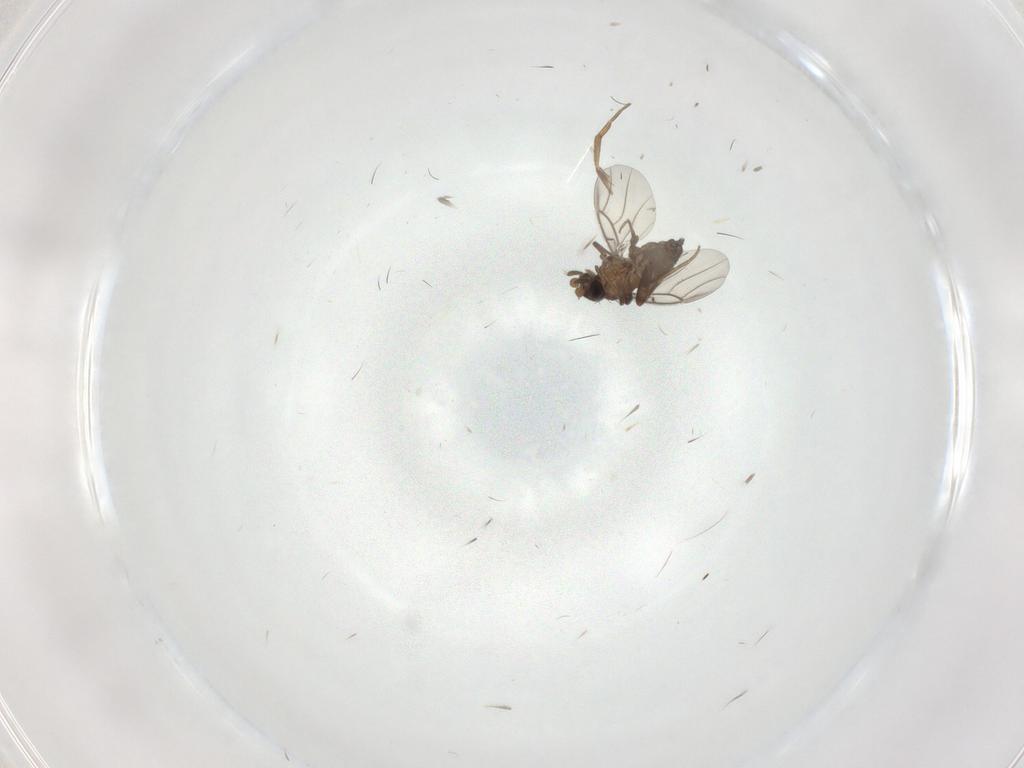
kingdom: Animalia
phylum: Arthropoda
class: Insecta
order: Diptera
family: Phoridae
